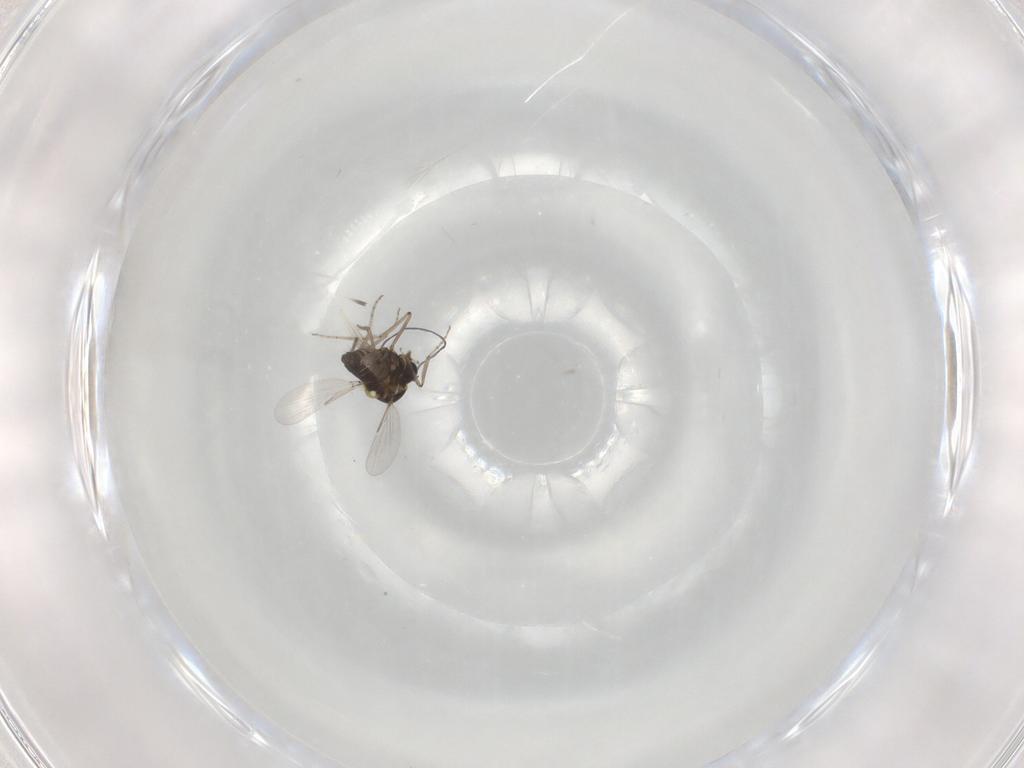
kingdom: Animalia
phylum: Arthropoda
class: Insecta
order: Diptera
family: Ceratopogonidae
